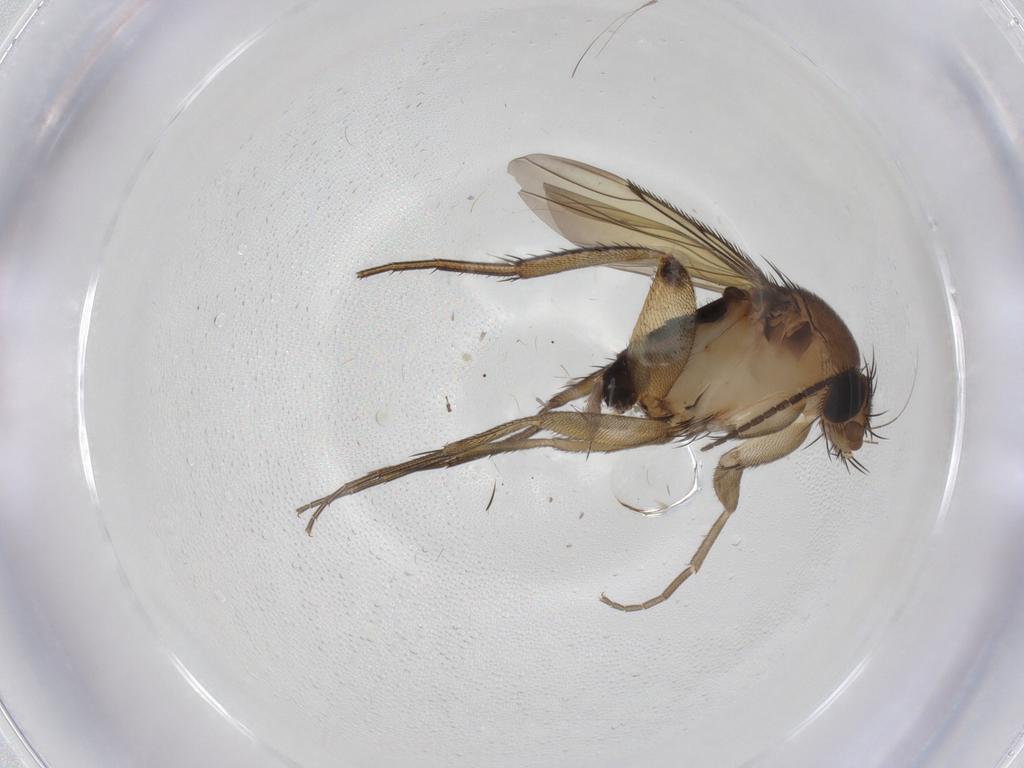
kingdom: Animalia
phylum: Arthropoda
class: Insecta
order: Diptera
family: Phoridae
